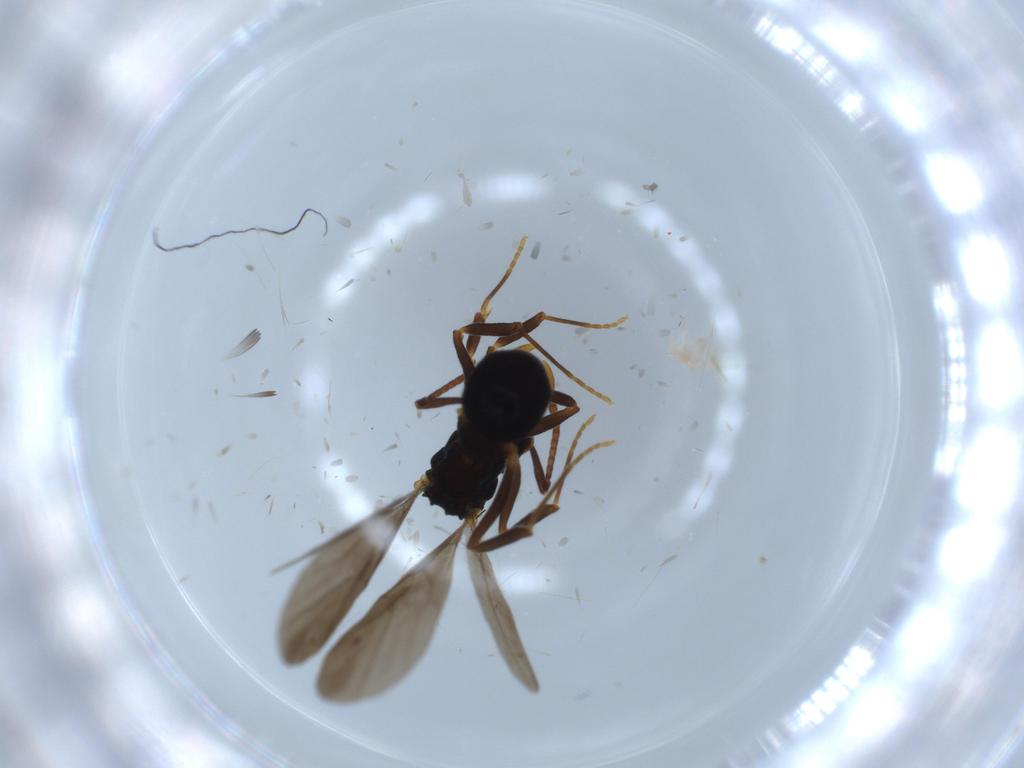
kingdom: Animalia
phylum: Arthropoda
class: Insecta
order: Hymenoptera
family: Formicidae
